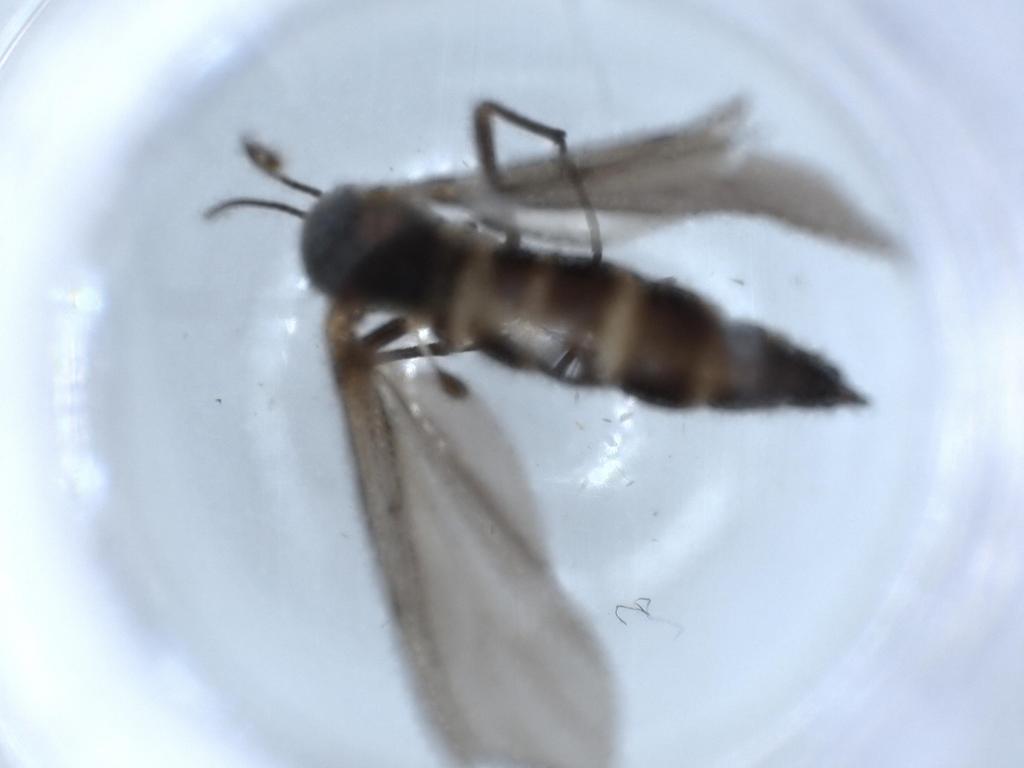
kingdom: Animalia
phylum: Arthropoda
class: Insecta
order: Diptera
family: Sciaridae
